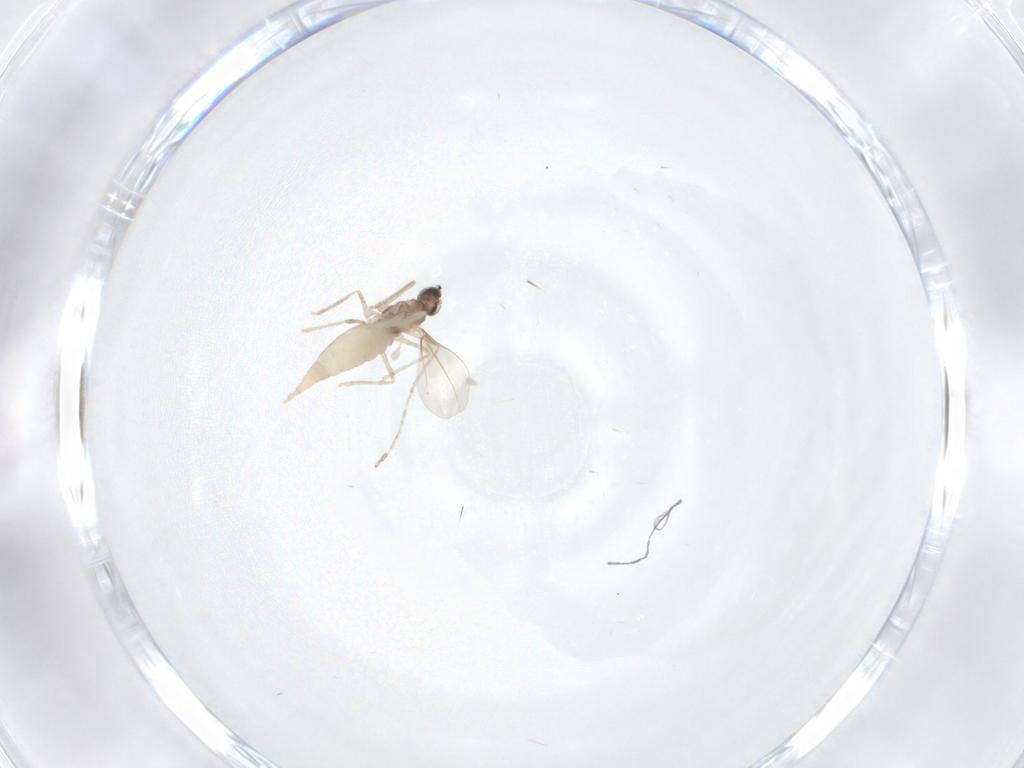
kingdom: Animalia
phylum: Arthropoda
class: Insecta
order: Diptera
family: Cecidomyiidae
